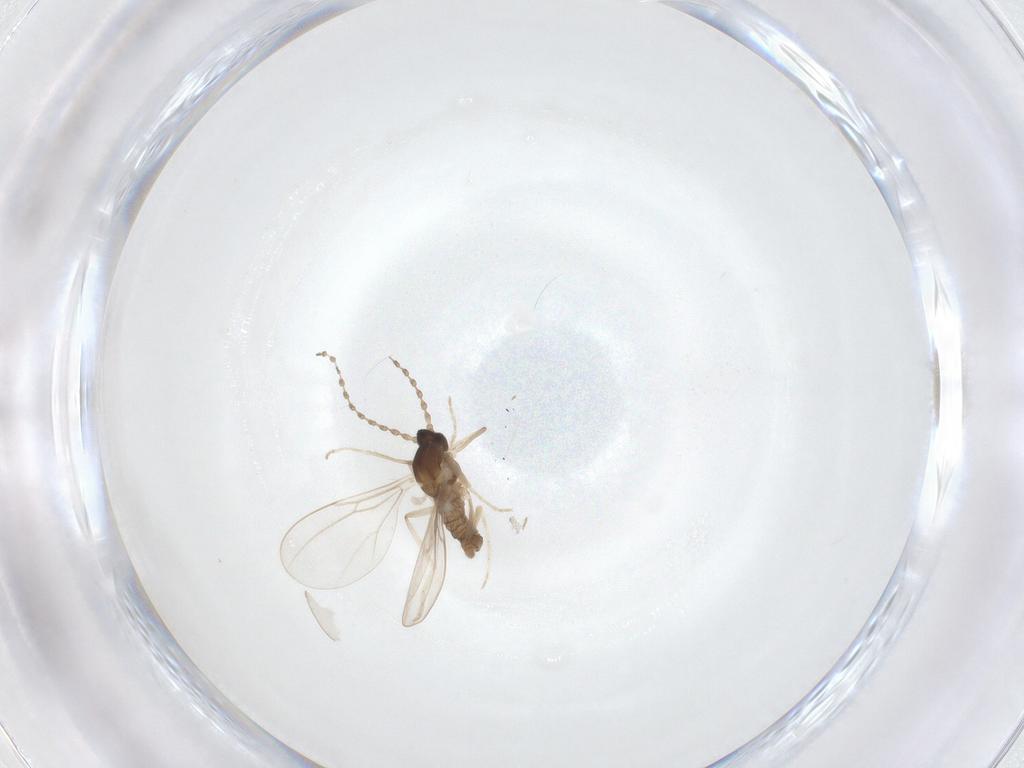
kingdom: Animalia
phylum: Arthropoda
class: Insecta
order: Diptera
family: Cecidomyiidae
